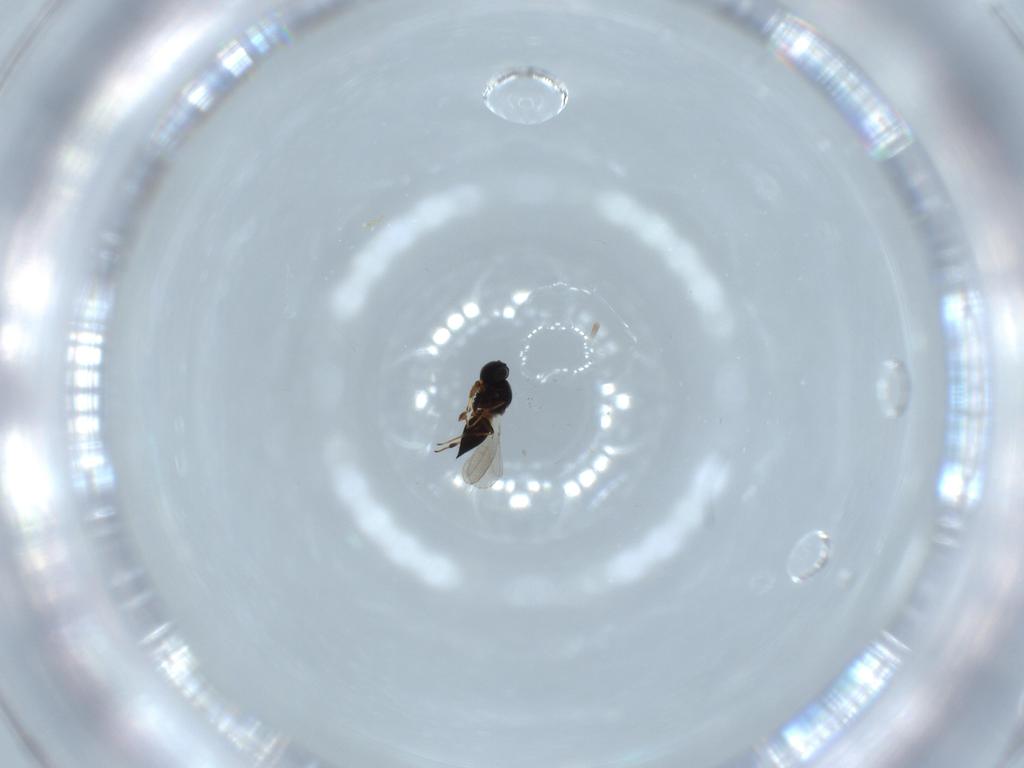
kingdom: Animalia
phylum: Arthropoda
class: Insecta
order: Hymenoptera
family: Platygastridae
